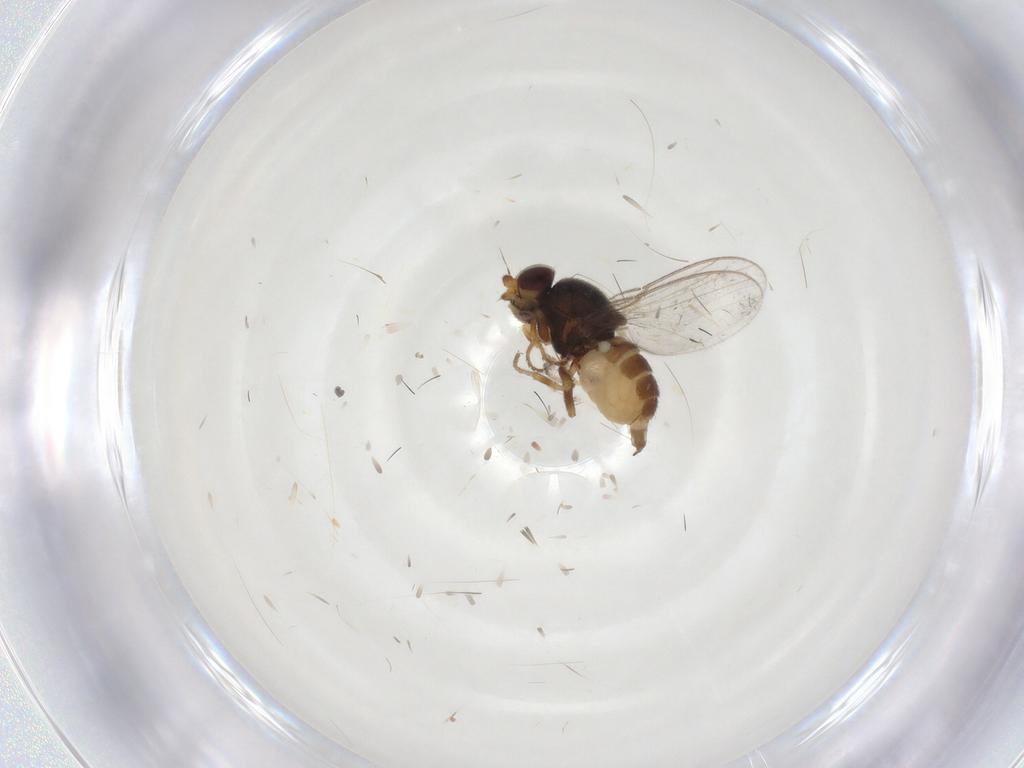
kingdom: Animalia
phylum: Arthropoda
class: Insecta
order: Diptera
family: Chloropidae
